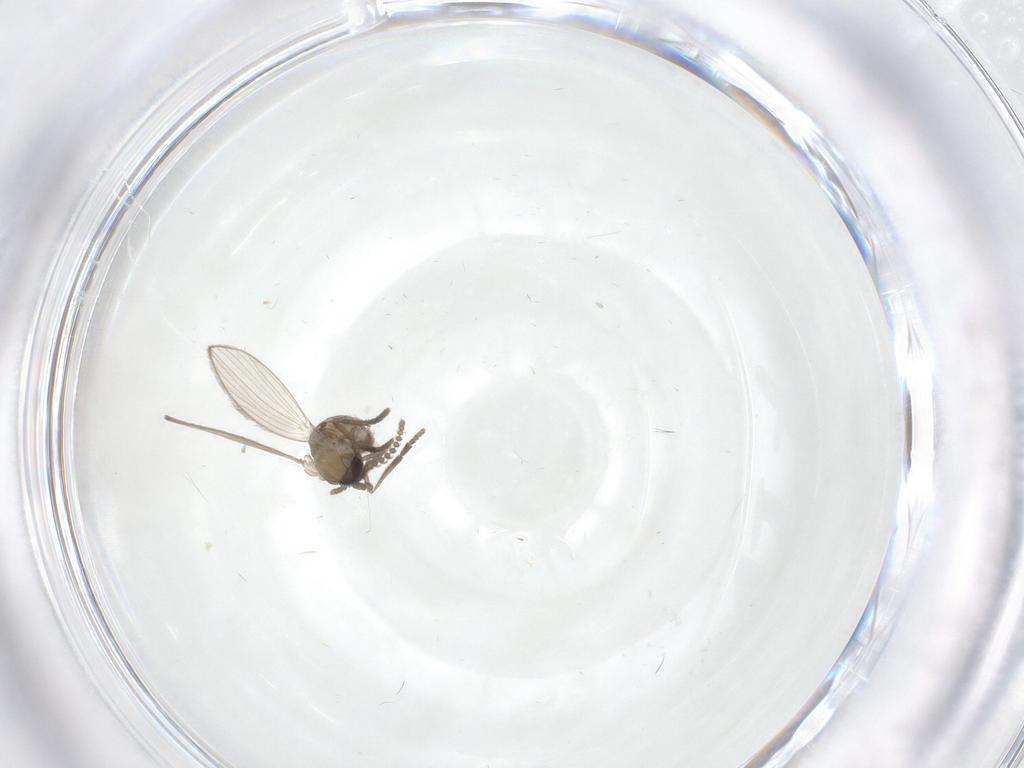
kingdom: Animalia
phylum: Arthropoda
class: Insecta
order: Diptera
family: Psychodidae
